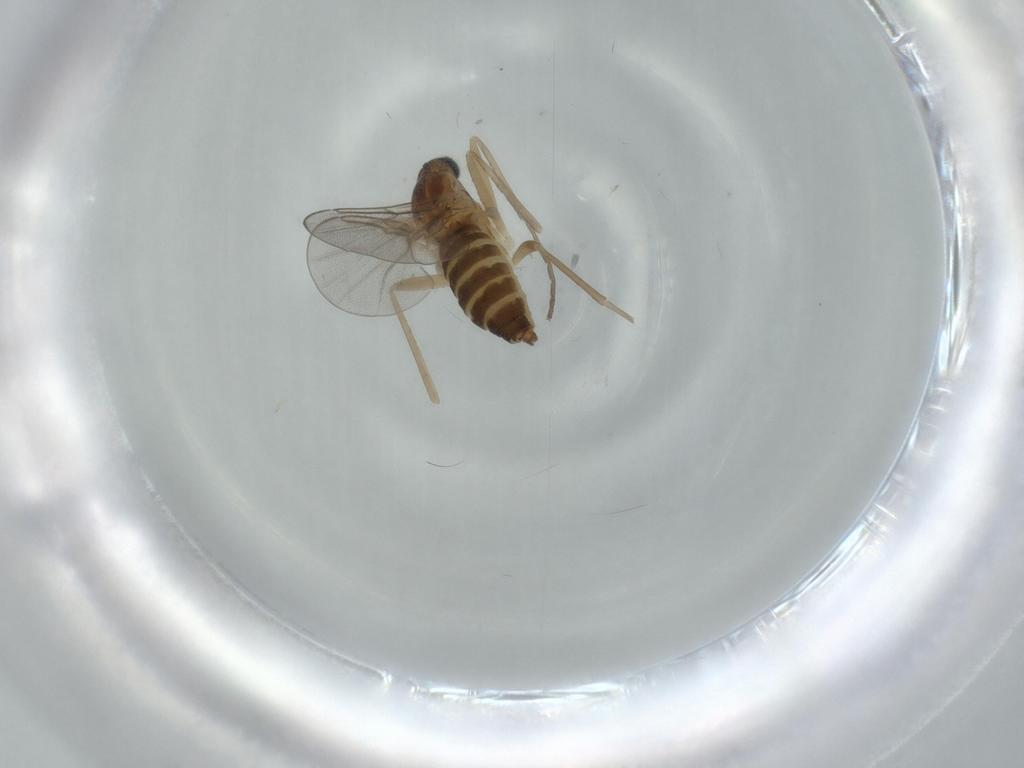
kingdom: Animalia
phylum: Arthropoda
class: Insecta
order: Diptera
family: Cecidomyiidae
